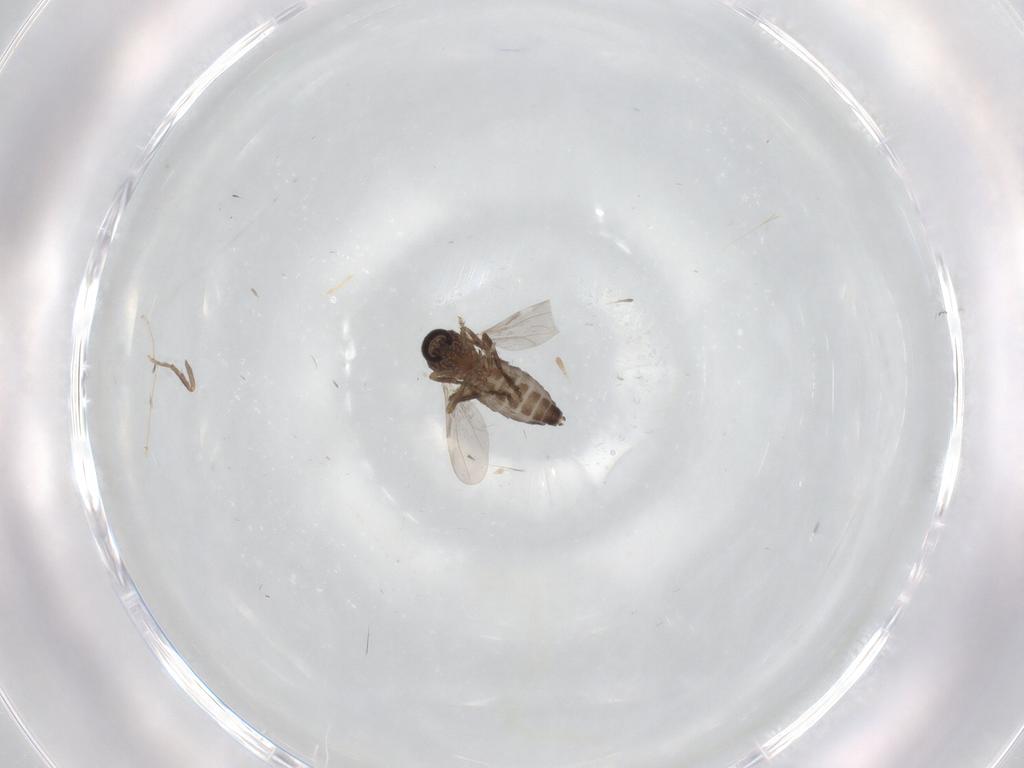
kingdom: Animalia
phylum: Arthropoda
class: Insecta
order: Diptera
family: Ceratopogonidae
